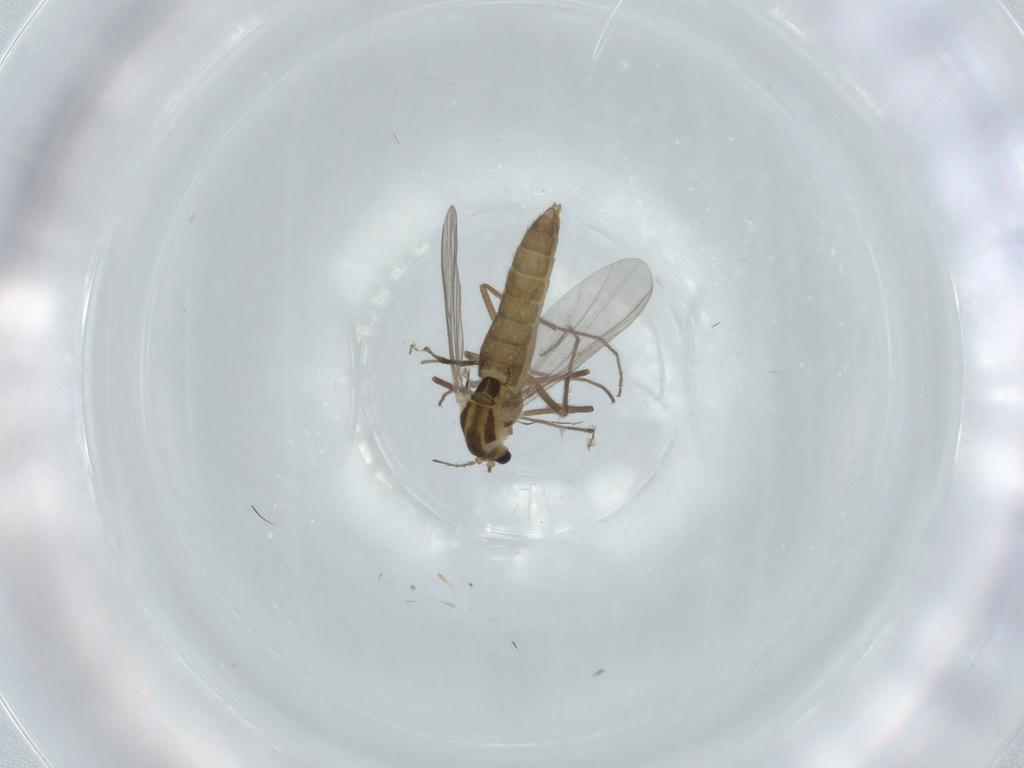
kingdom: Animalia
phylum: Arthropoda
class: Insecta
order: Diptera
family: Chironomidae
